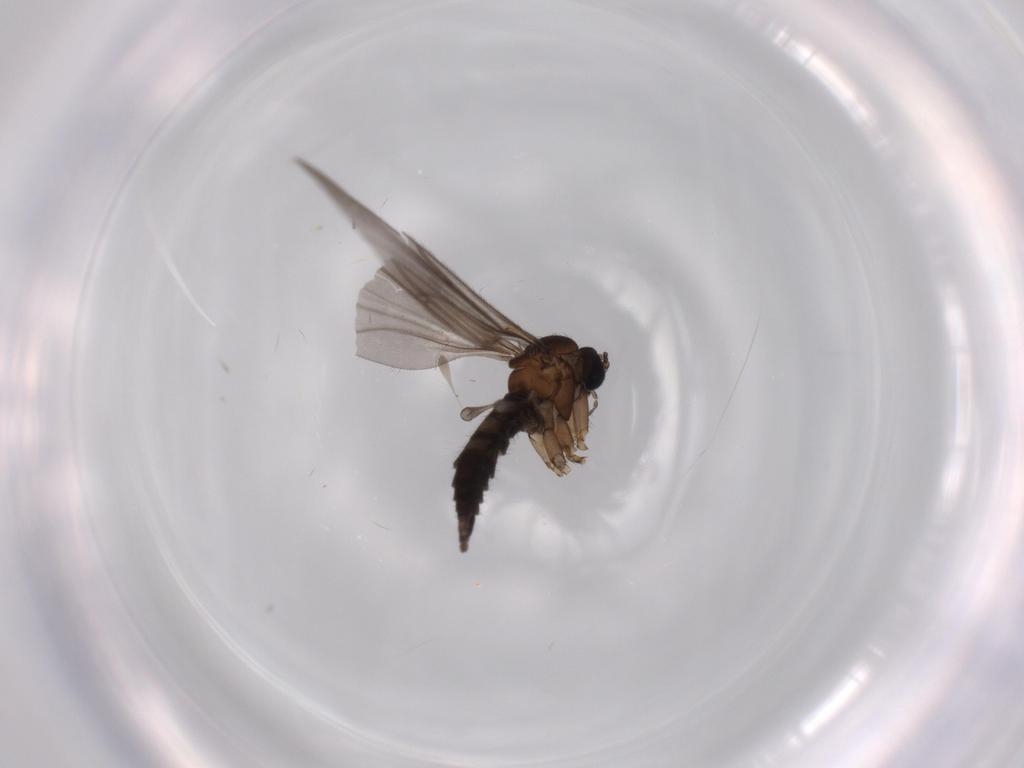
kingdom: Animalia
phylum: Arthropoda
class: Insecta
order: Diptera
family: Sciaridae
